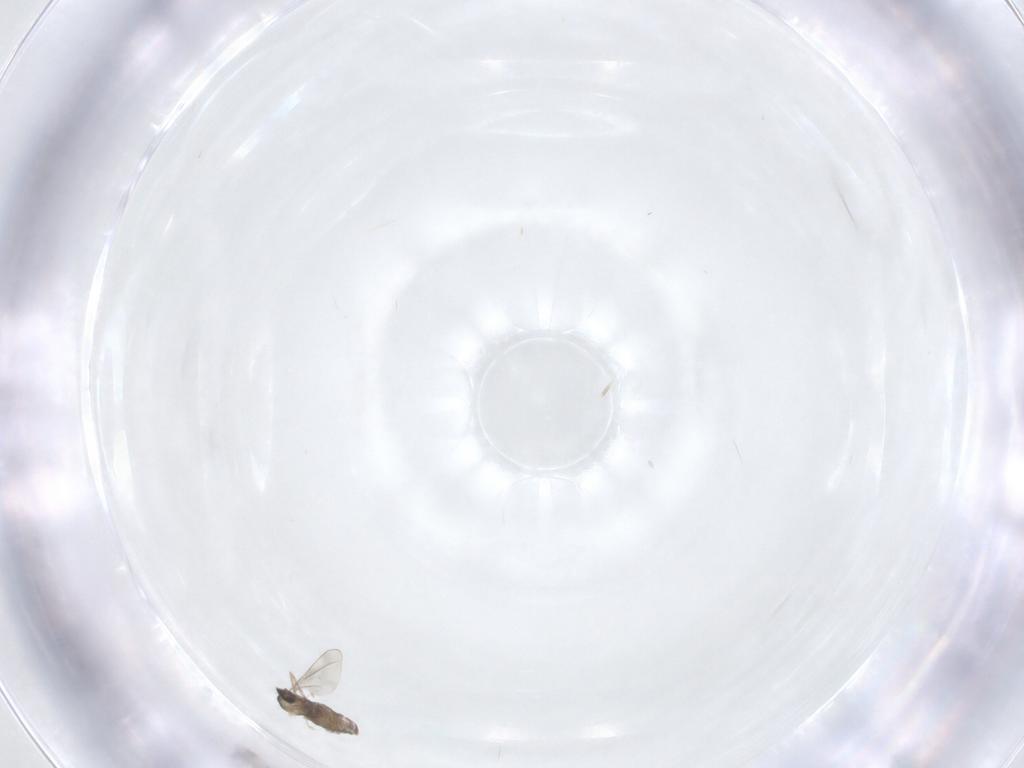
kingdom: Animalia
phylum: Arthropoda
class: Insecta
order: Diptera
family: Cecidomyiidae
